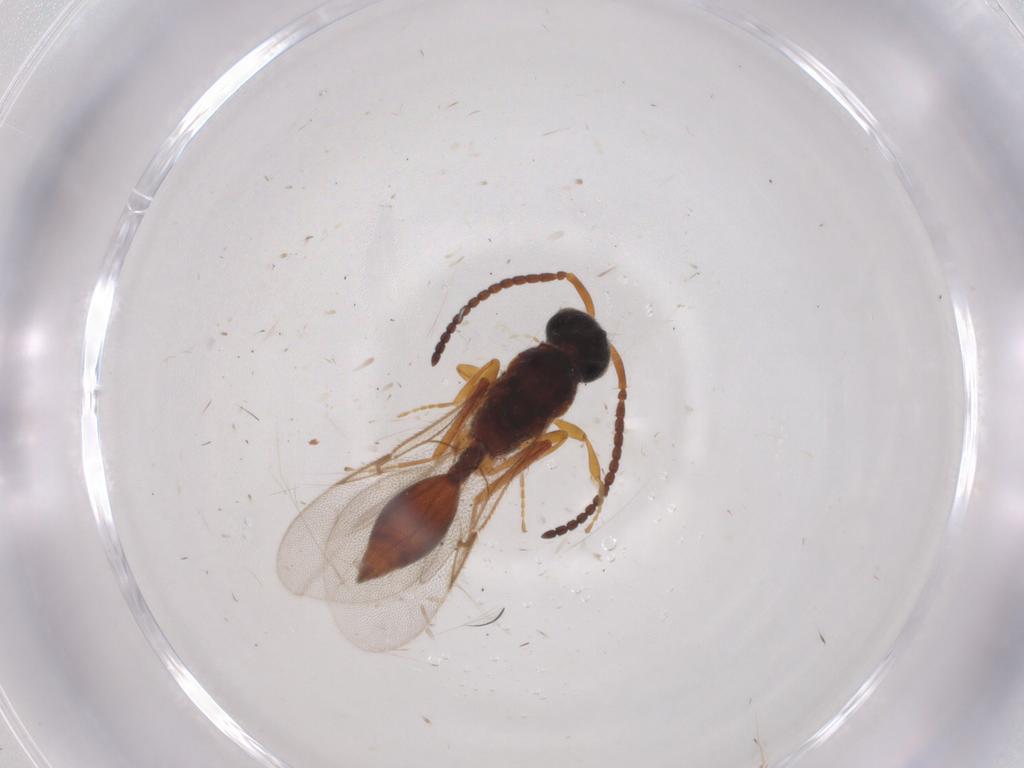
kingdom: Animalia
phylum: Arthropoda
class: Insecta
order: Hymenoptera
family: Diapriidae
